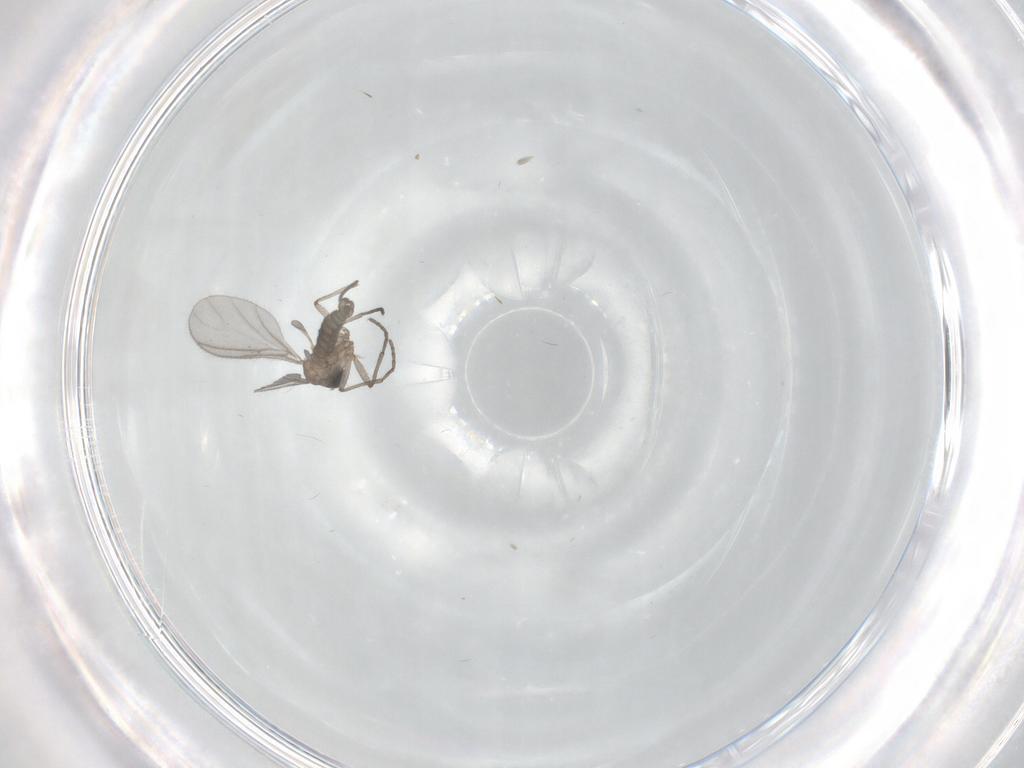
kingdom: Animalia
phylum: Arthropoda
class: Insecta
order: Diptera
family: Sciaridae
